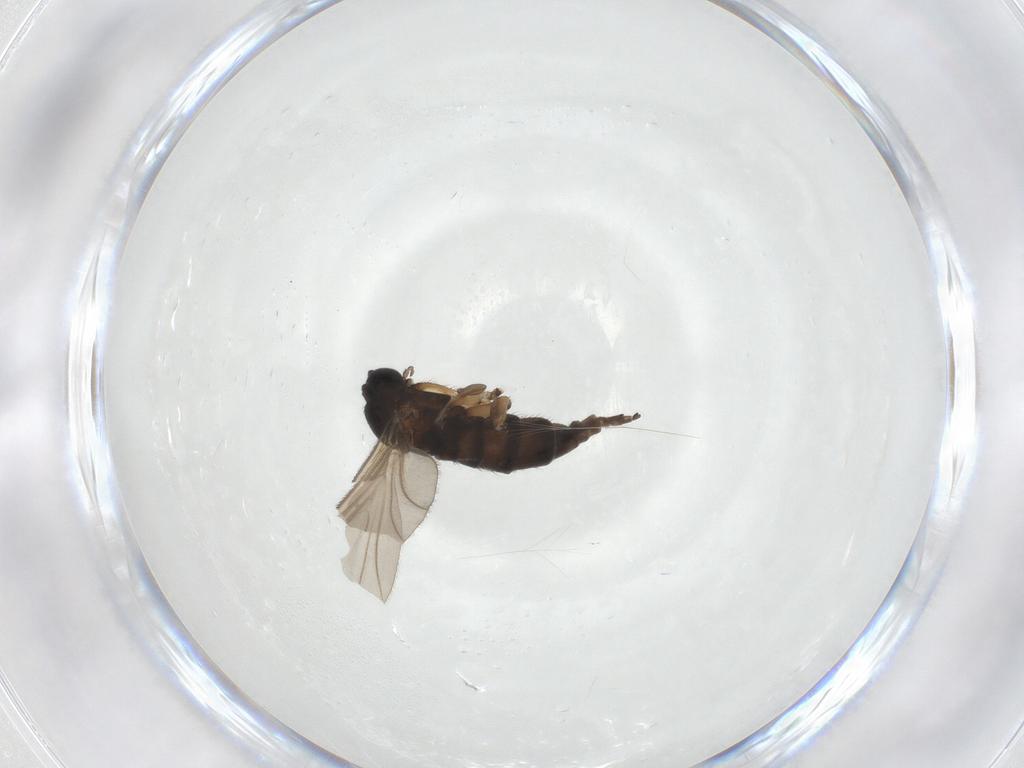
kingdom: Animalia
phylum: Arthropoda
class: Insecta
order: Diptera
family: Sciaridae
